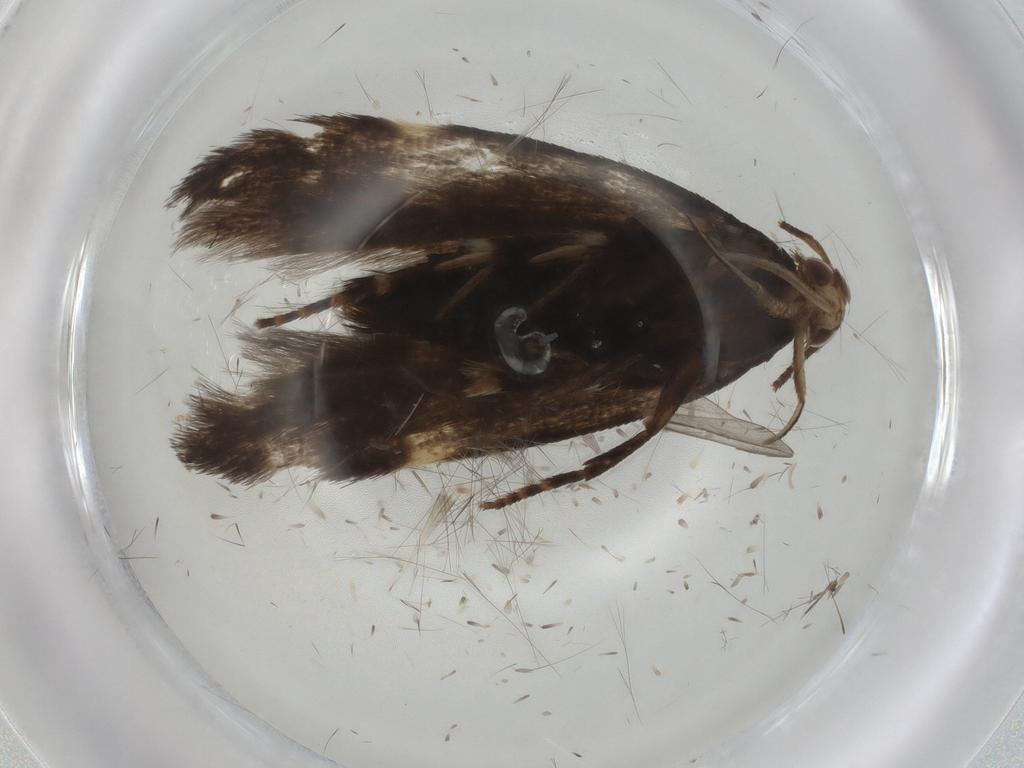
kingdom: Animalia
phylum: Arthropoda
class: Insecta
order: Lepidoptera
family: Gelechiidae
